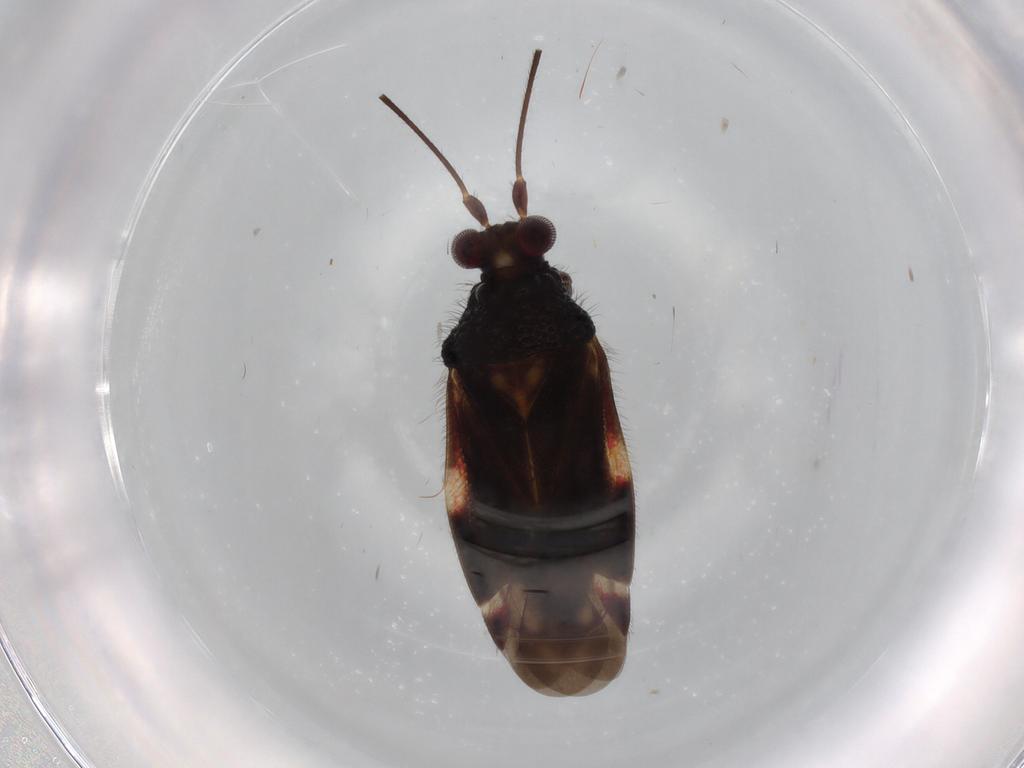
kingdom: Animalia
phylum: Arthropoda
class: Insecta
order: Hemiptera
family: Miridae
